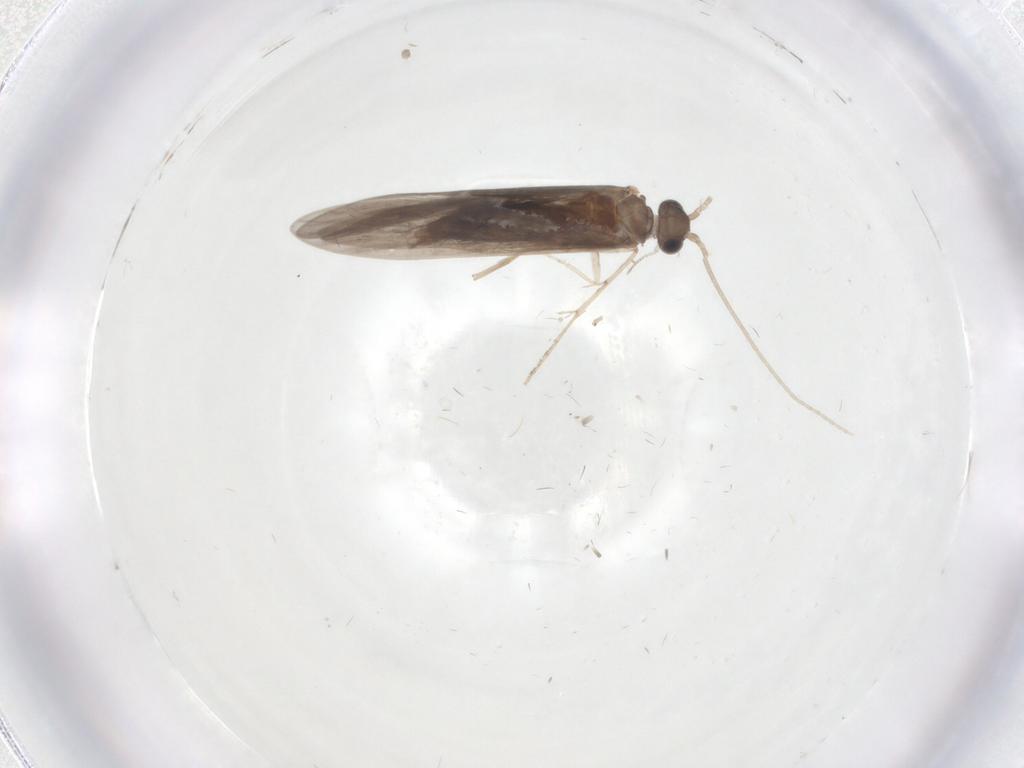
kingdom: Animalia
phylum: Arthropoda
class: Insecta
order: Trichoptera
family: Xiphocentronidae
